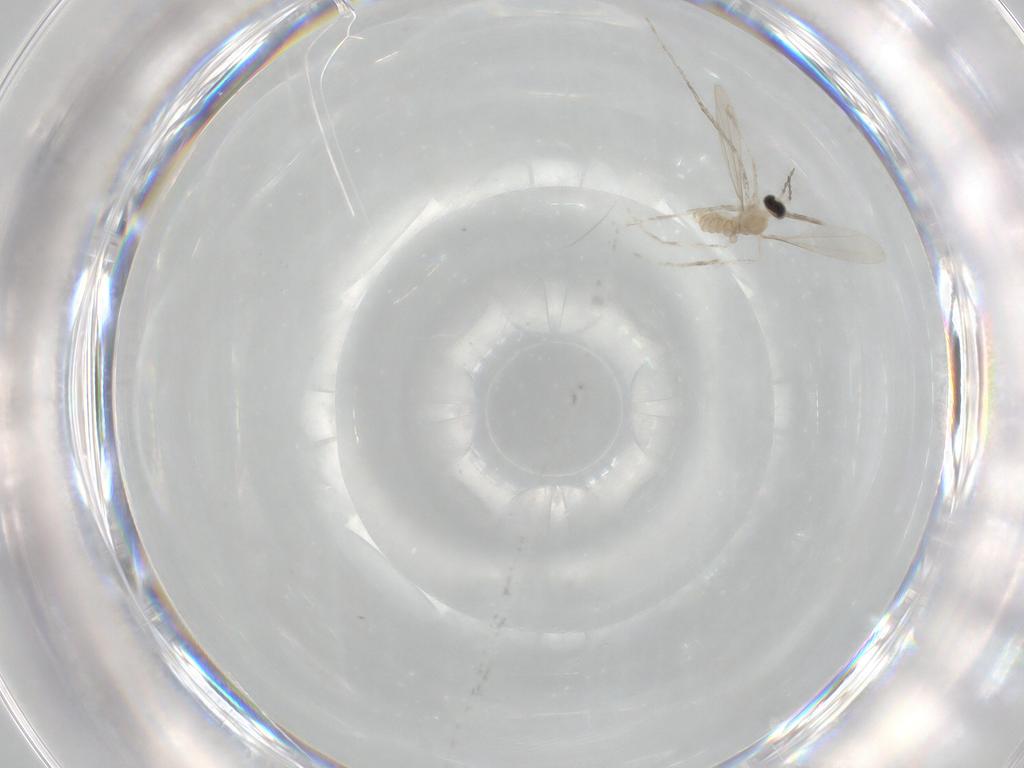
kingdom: Animalia
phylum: Arthropoda
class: Insecta
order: Diptera
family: Cecidomyiidae
